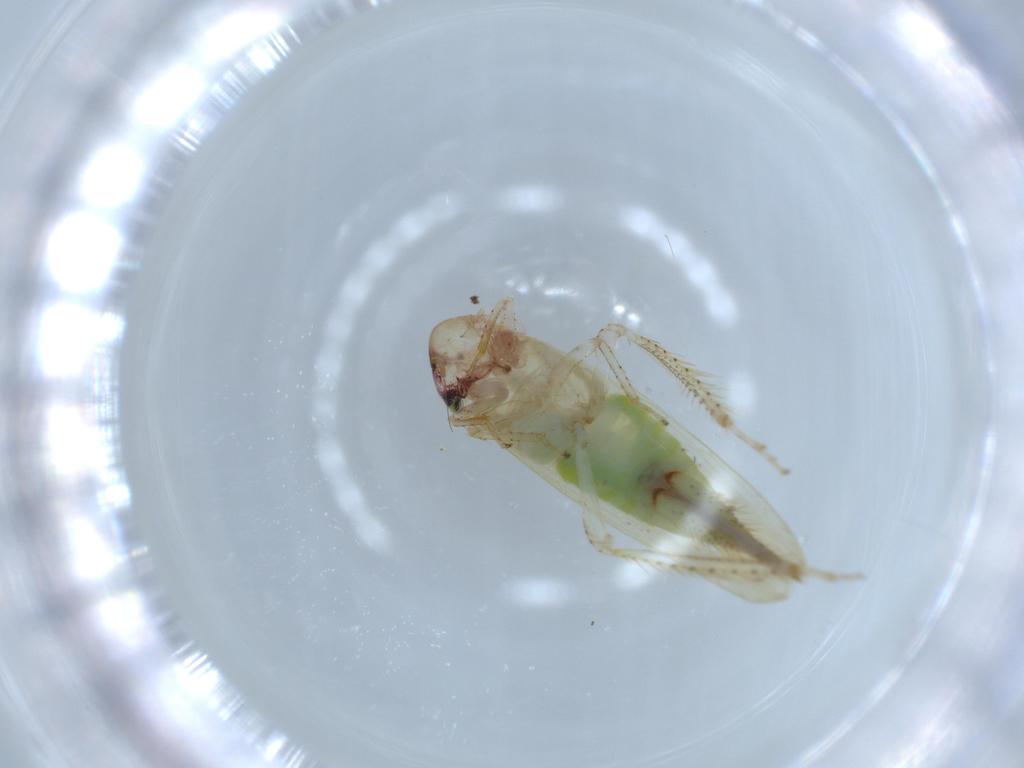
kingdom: Animalia
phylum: Arthropoda
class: Insecta
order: Hemiptera
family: Cicadellidae
